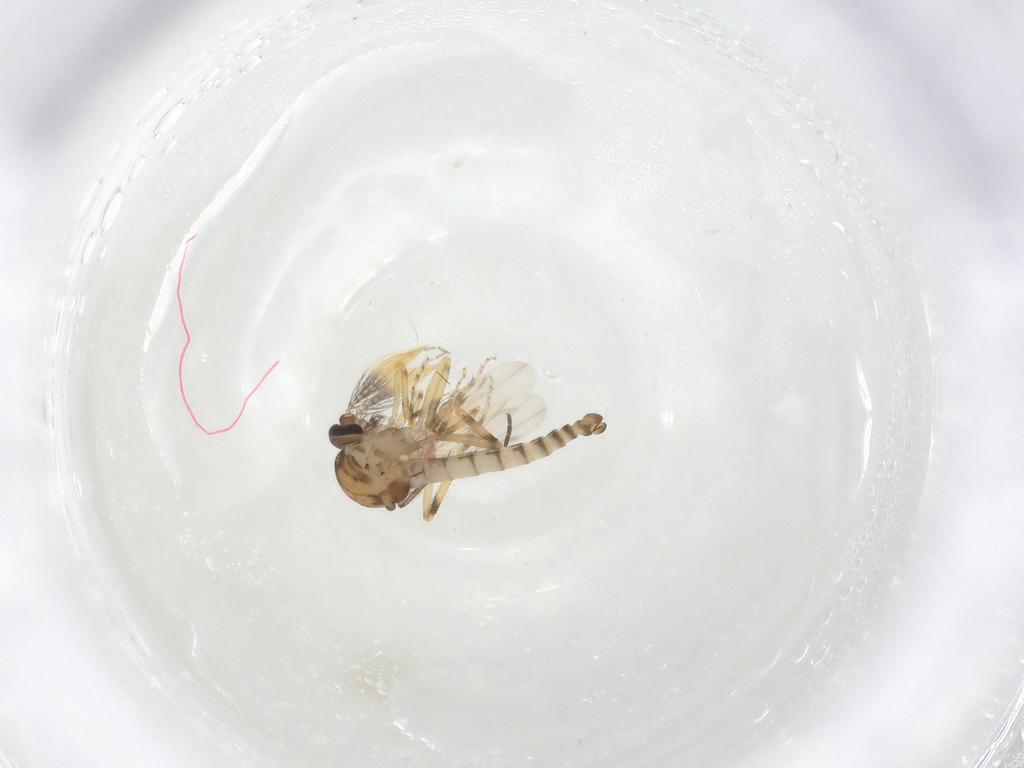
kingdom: Animalia
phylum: Arthropoda
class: Insecta
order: Diptera
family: Ceratopogonidae
